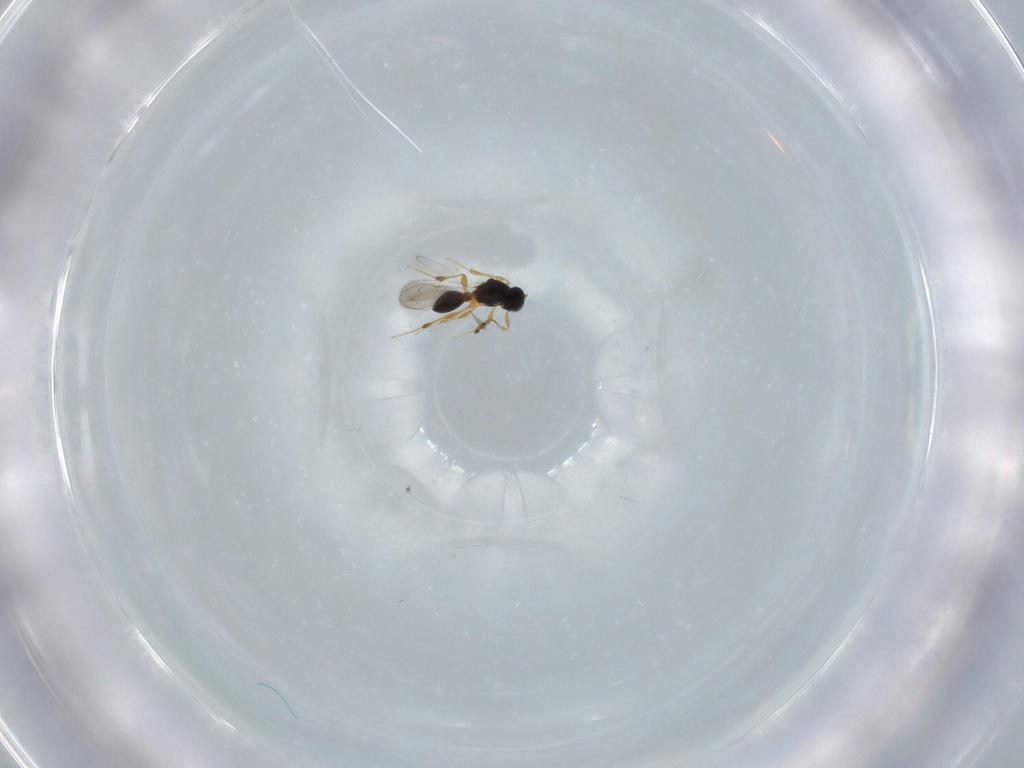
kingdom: Animalia
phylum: Arthropoda
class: Insecta
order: Hymenoptera
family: Platygastridae
